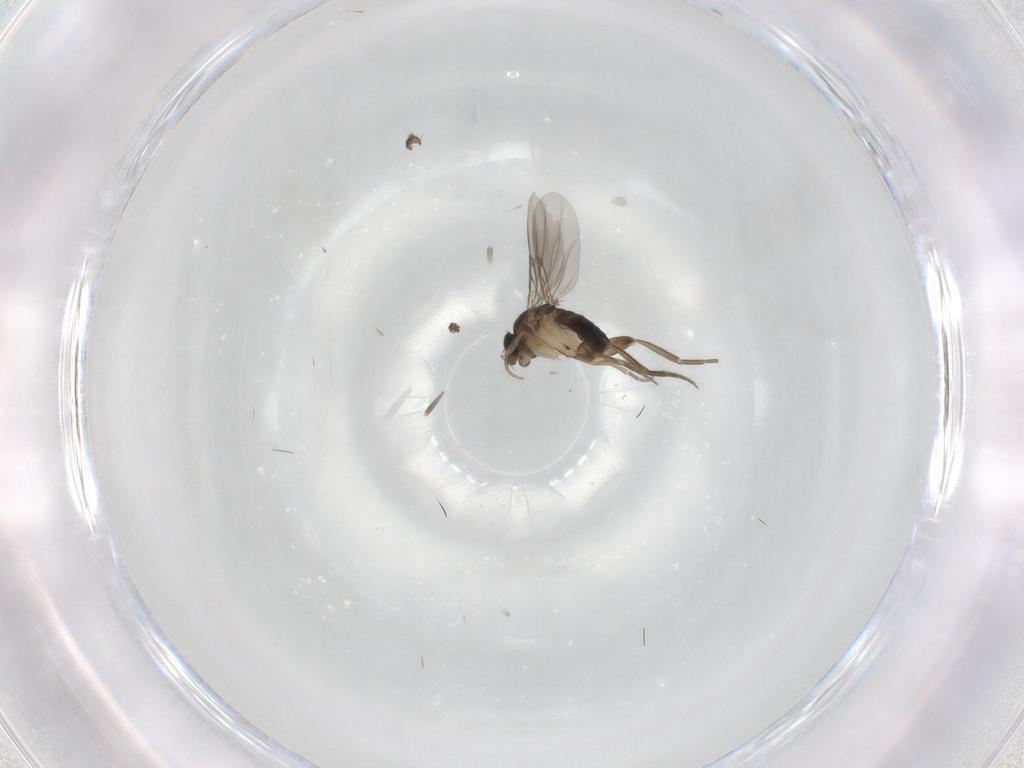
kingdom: Animalia
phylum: Arthropoda
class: Insecta
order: Diptera
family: Phoridae
